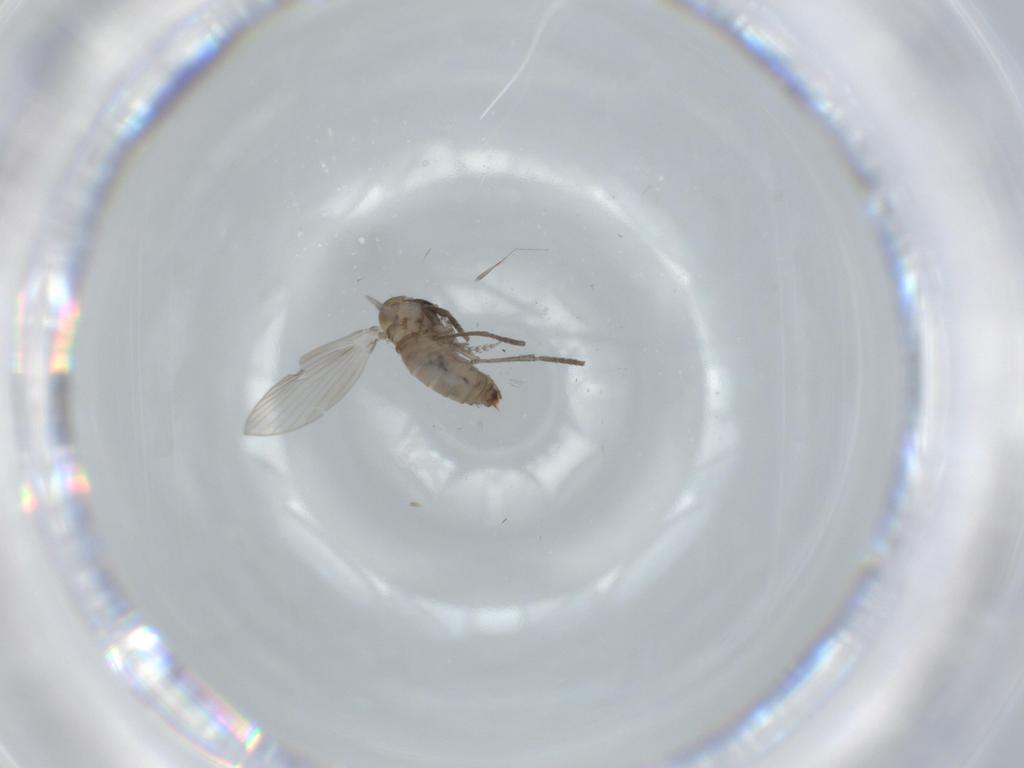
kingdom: Animalia
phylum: Arthropoda
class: Insecta
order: Diptera
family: Psychodidae
